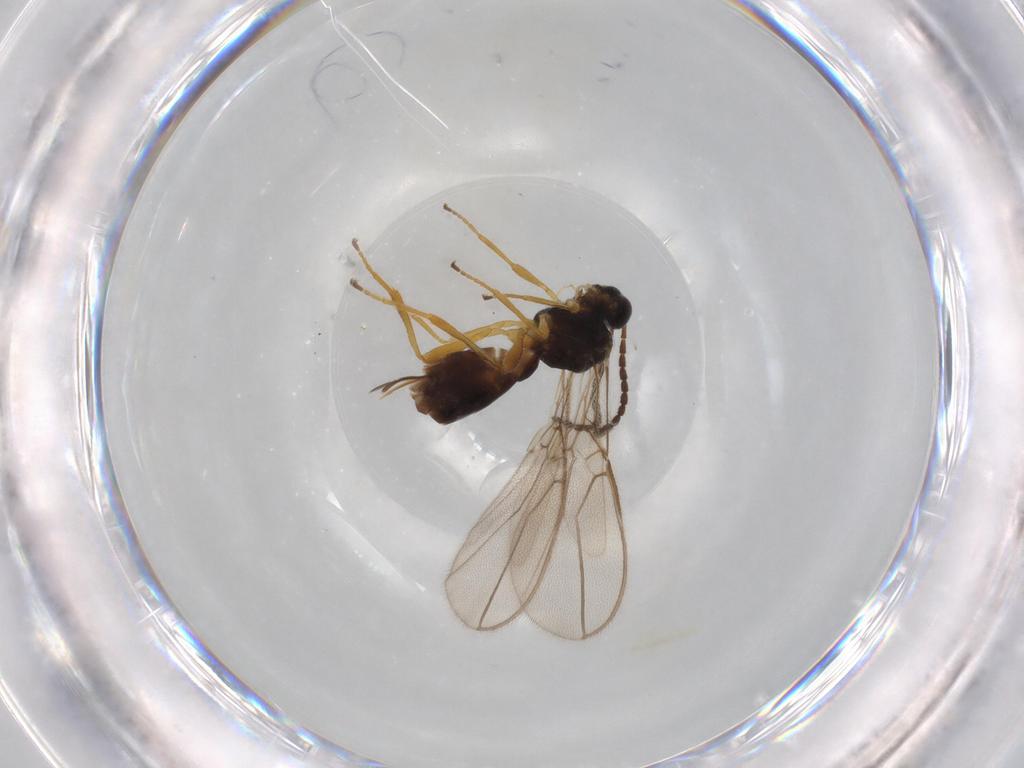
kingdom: Animalia
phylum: Arthropoda
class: Insecta
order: Hymenoptera
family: Braconidae
